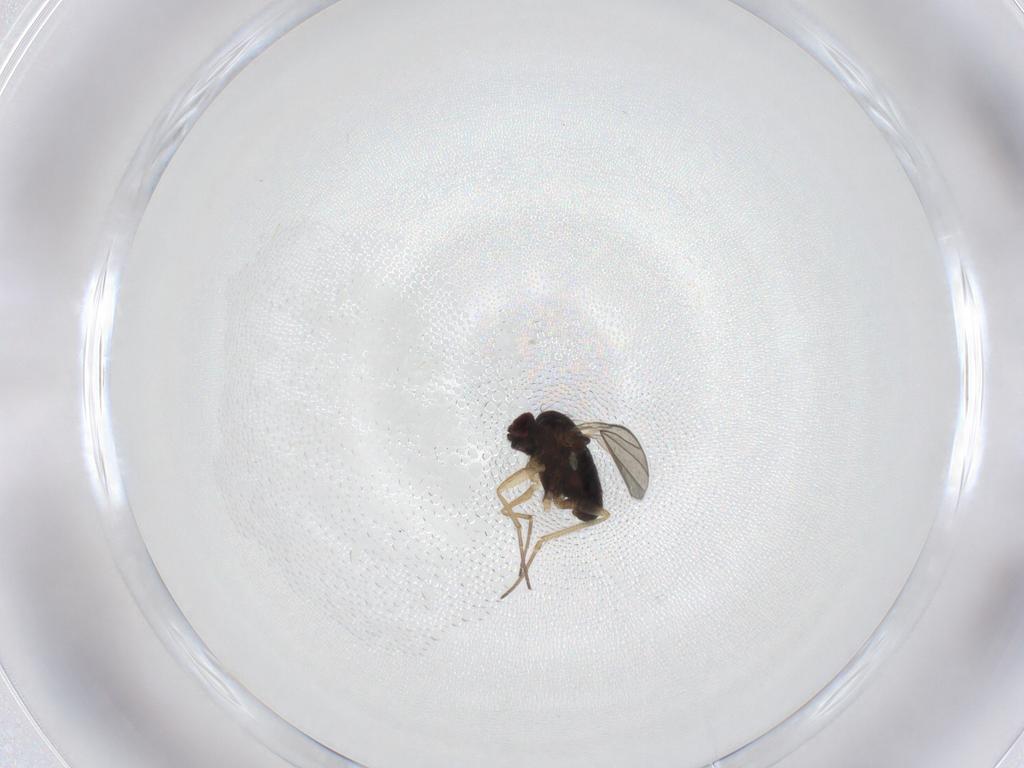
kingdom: Animalia
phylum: Arthropoda
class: Insecta
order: Diptera
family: Dolichopodidae
